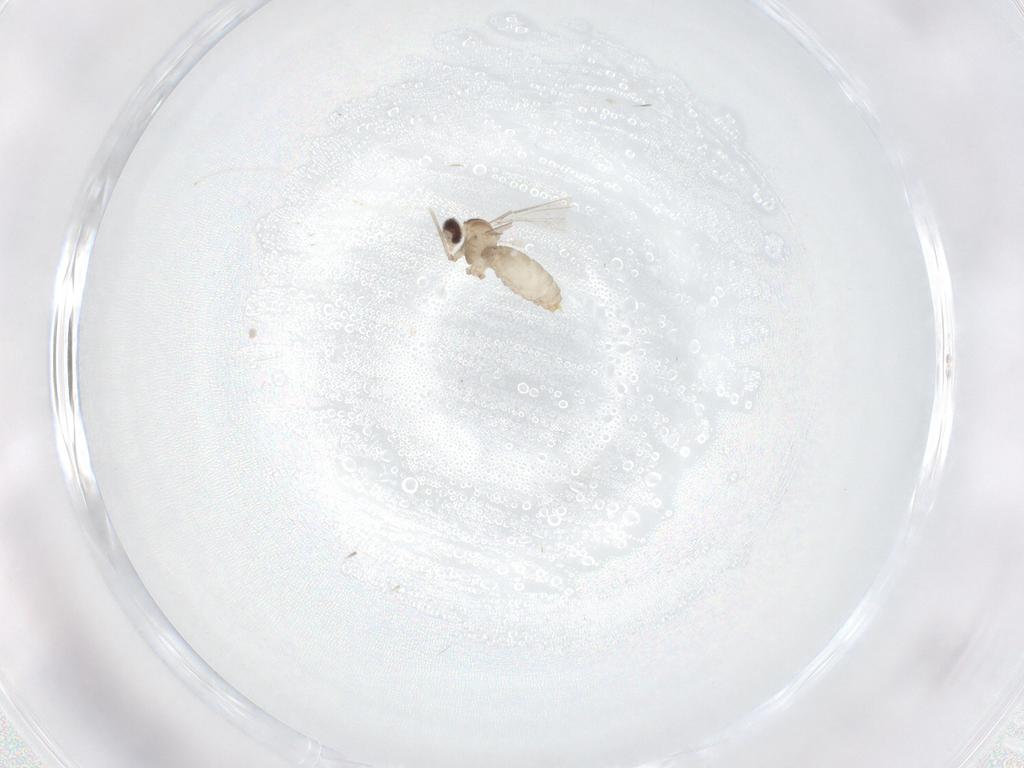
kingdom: Animalia
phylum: Arthropoda
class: Insecta
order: Diptera
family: Cecidomyiidae
